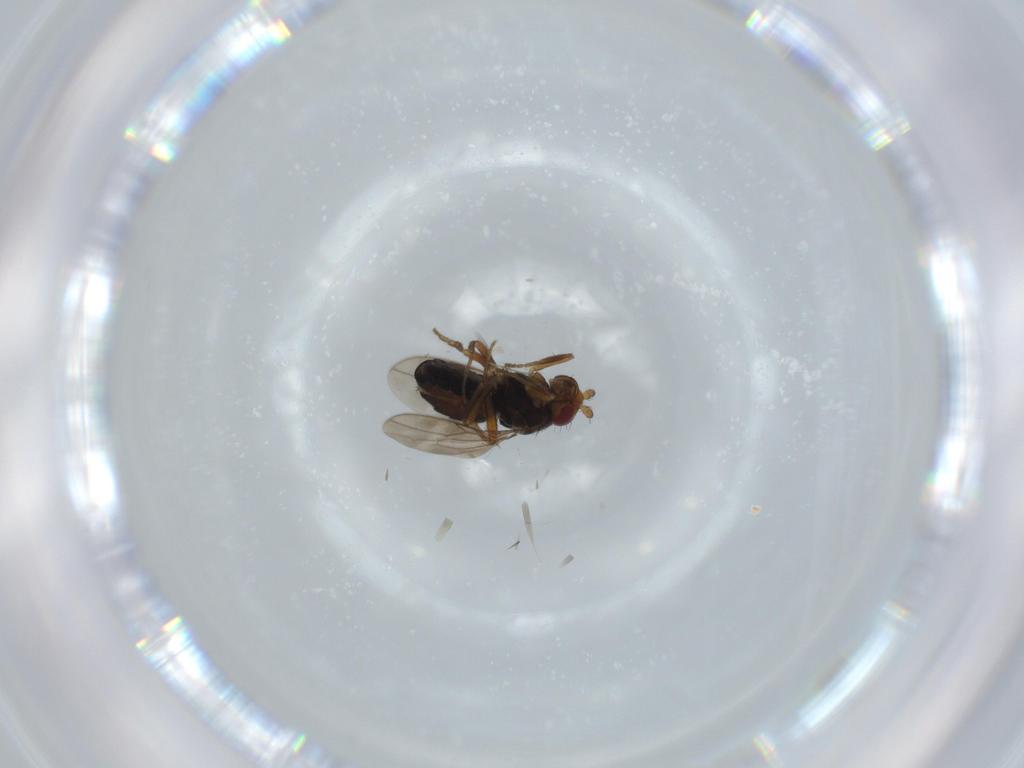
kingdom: Animalia
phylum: Arthropoda
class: Insecta
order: Diptera
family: Sphaeroceridae
